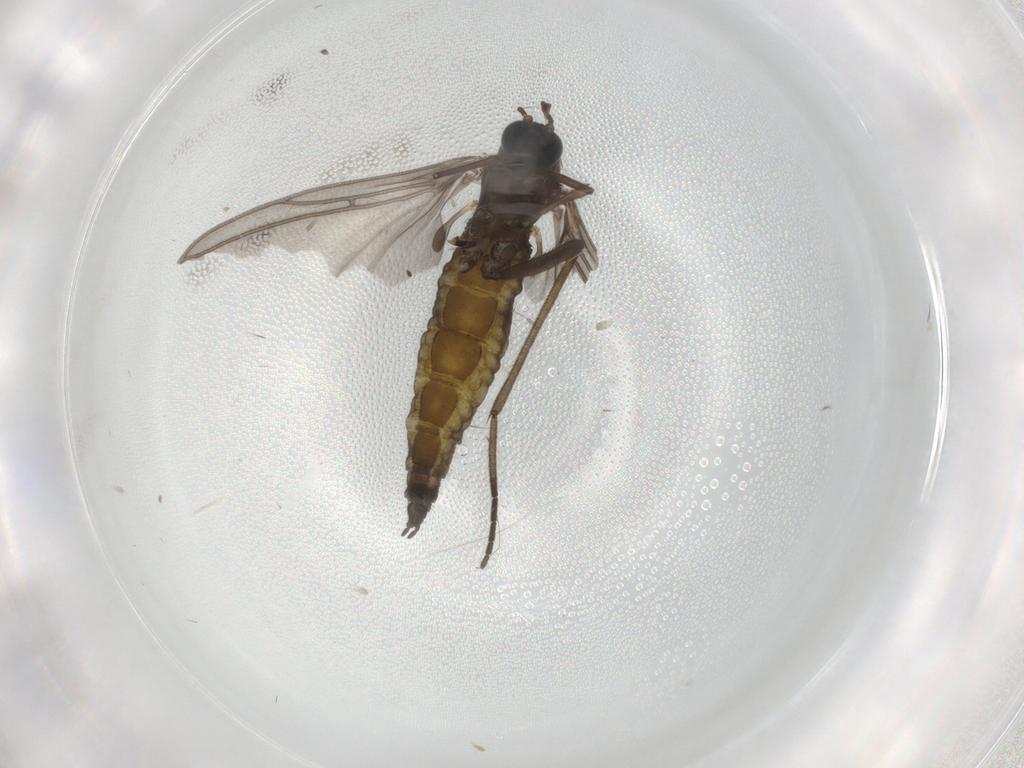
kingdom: Animalia
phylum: Arthropoda
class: Insecta
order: Diptera
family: Sciaridae
